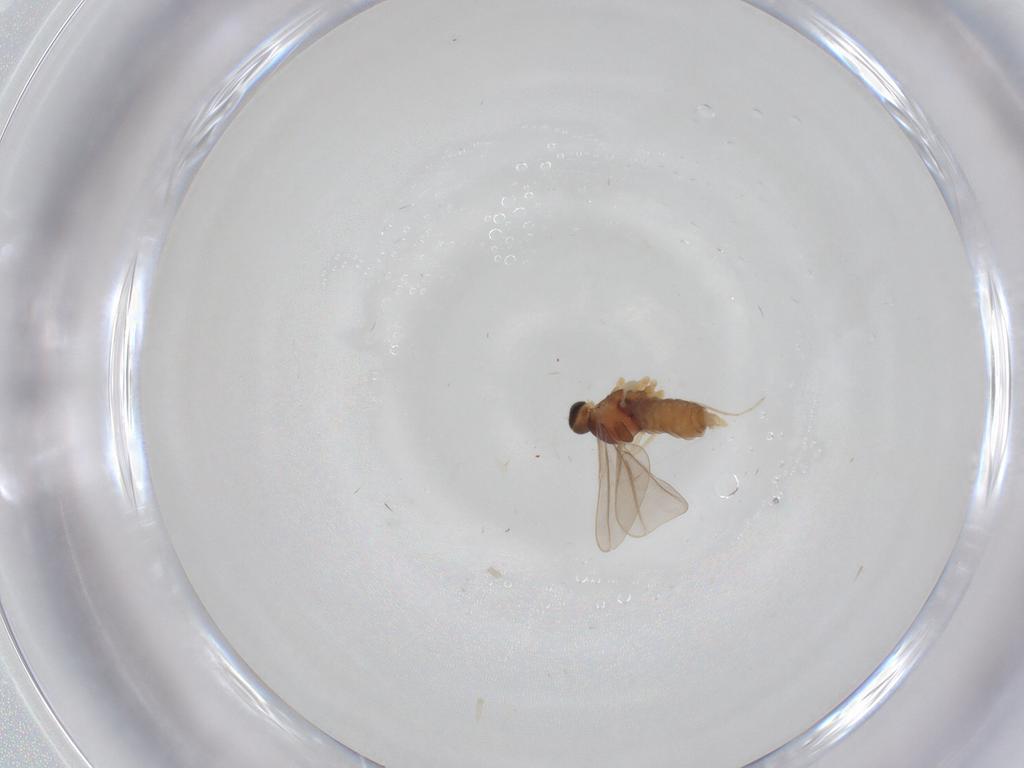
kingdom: Animalia
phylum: Arthropoda
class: Insecta
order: Diptera
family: Cecidomyiidae
